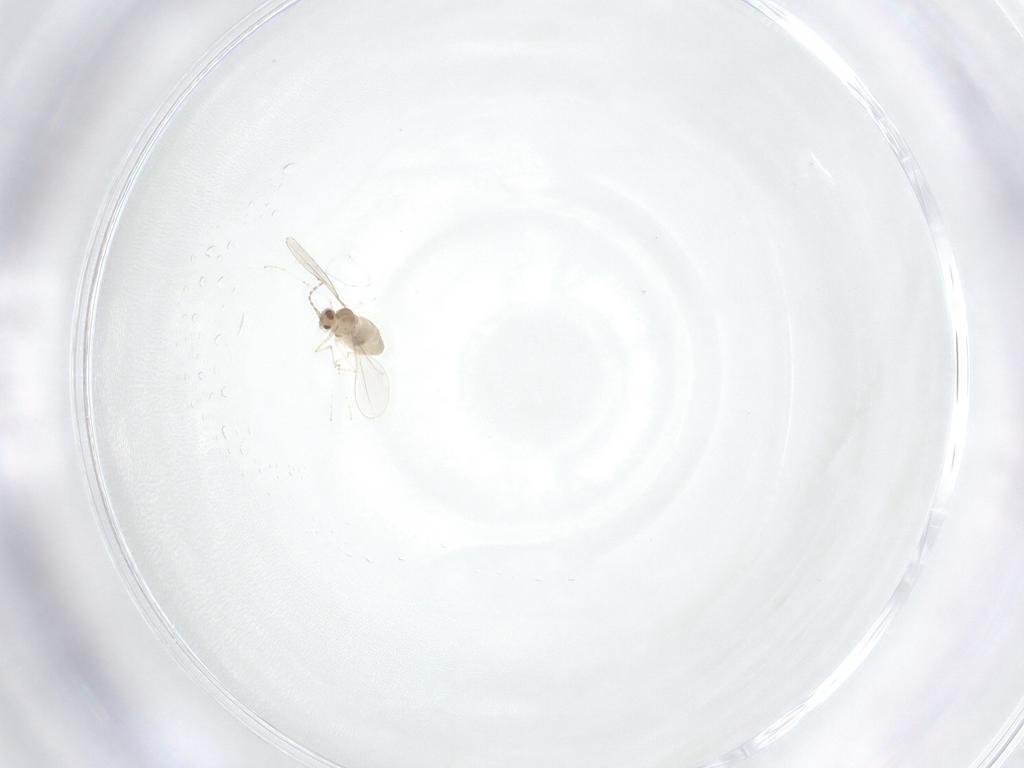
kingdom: Animalia
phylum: Arthropoda
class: Insecta
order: Diptera
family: Cecidomyiidae
